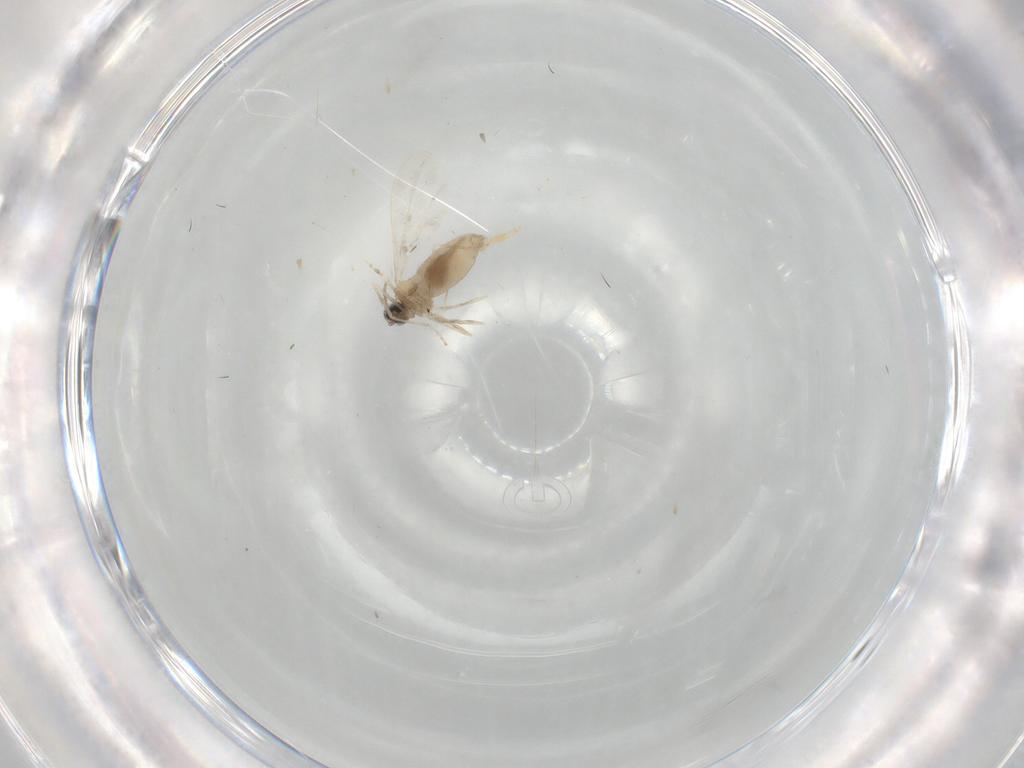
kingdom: Animalia
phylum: Arthropoda
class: Insecta
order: Diptera
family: Cecidomyiidae
